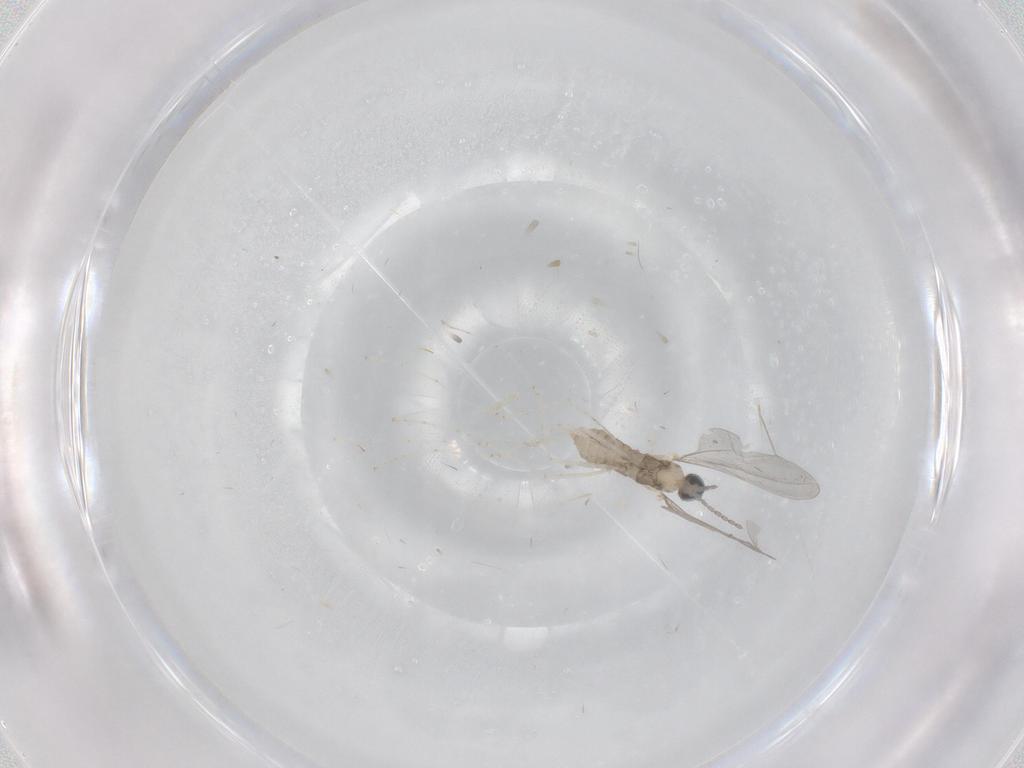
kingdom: Animalia
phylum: Arthropoda
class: Insecta
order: Diptera
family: Cecidomyiidae
